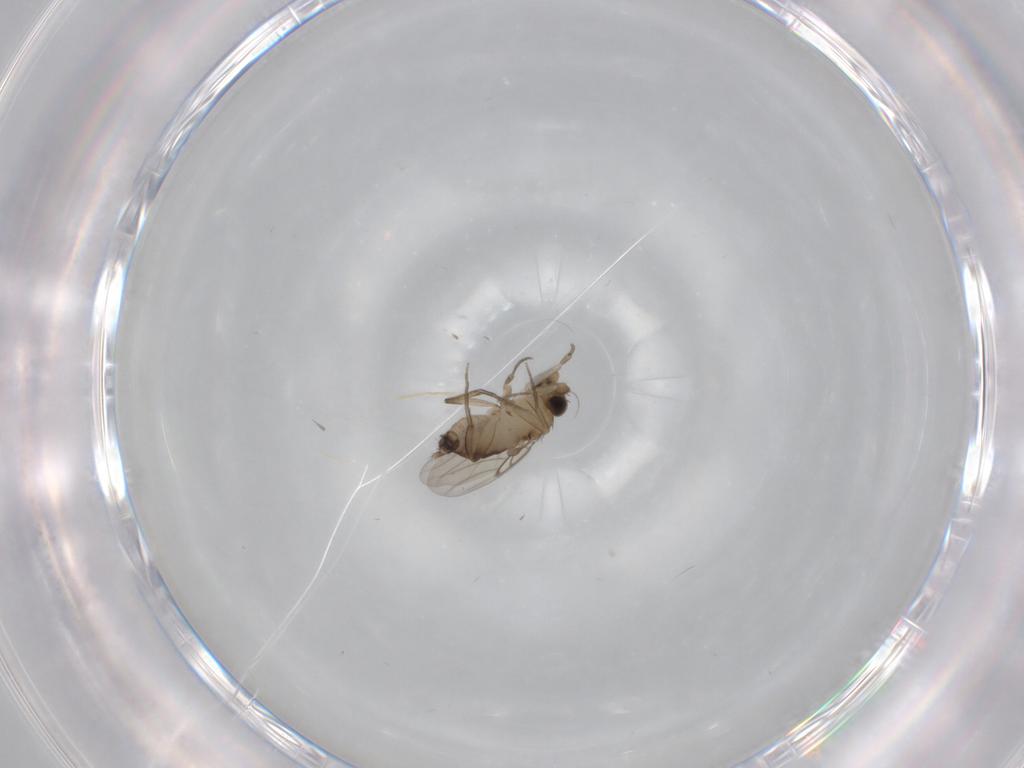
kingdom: Animalia
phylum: Arthropoda
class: Insecta
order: Diptera
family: Phoridae
